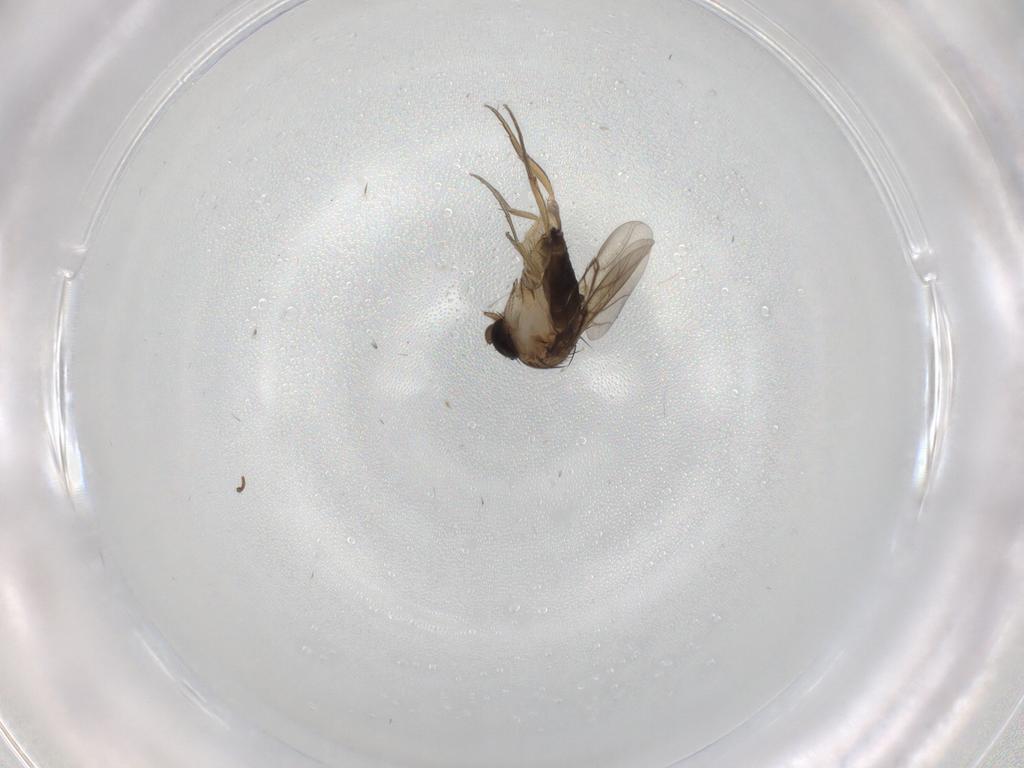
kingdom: Animalia
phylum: Arthropoda
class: Insecta
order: Diptera
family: Phoridae
